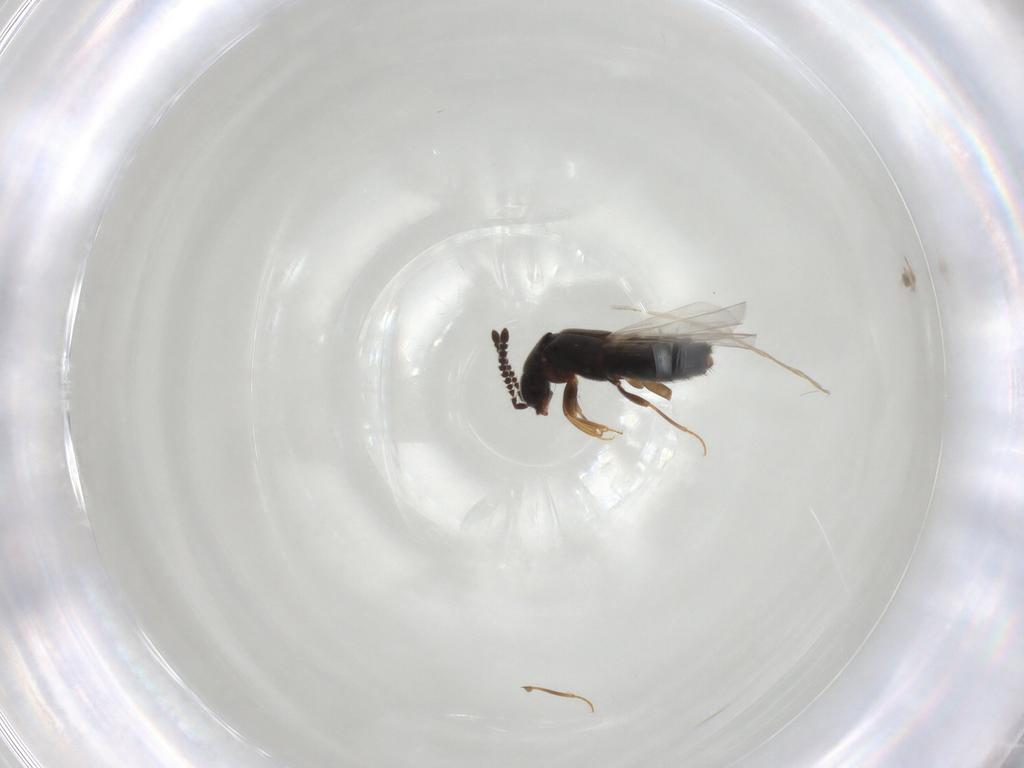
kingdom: Animalia
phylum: Arthropoda
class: Insecta
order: Coleoptera
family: Staphylinidae
